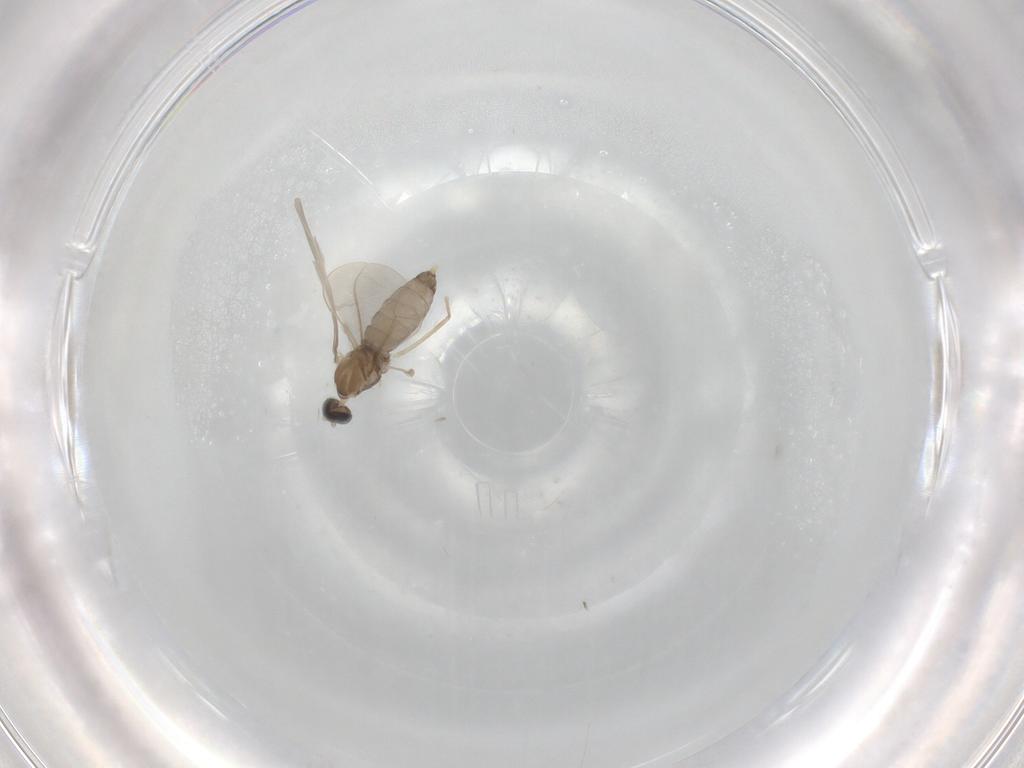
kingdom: Animalia
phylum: Arthropoda
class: Insecta
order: Diptera
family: Cecidomyiidae
